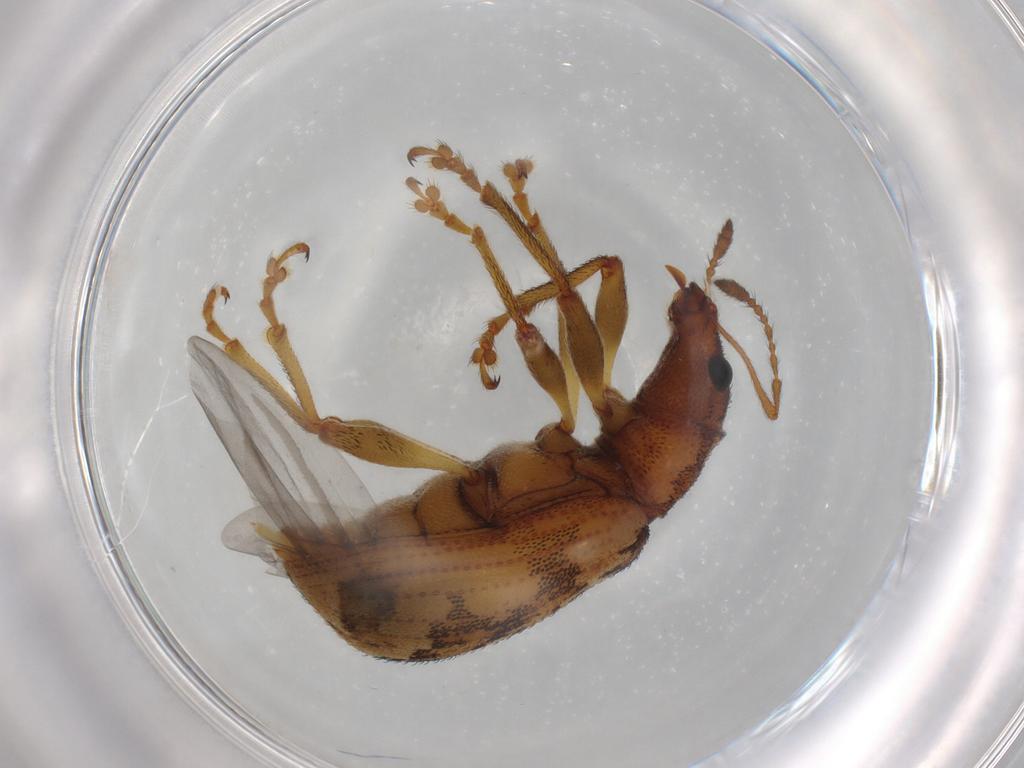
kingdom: Animalia
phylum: Arthropoda
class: Insecta
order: Coleoptera
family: Curculionidae
